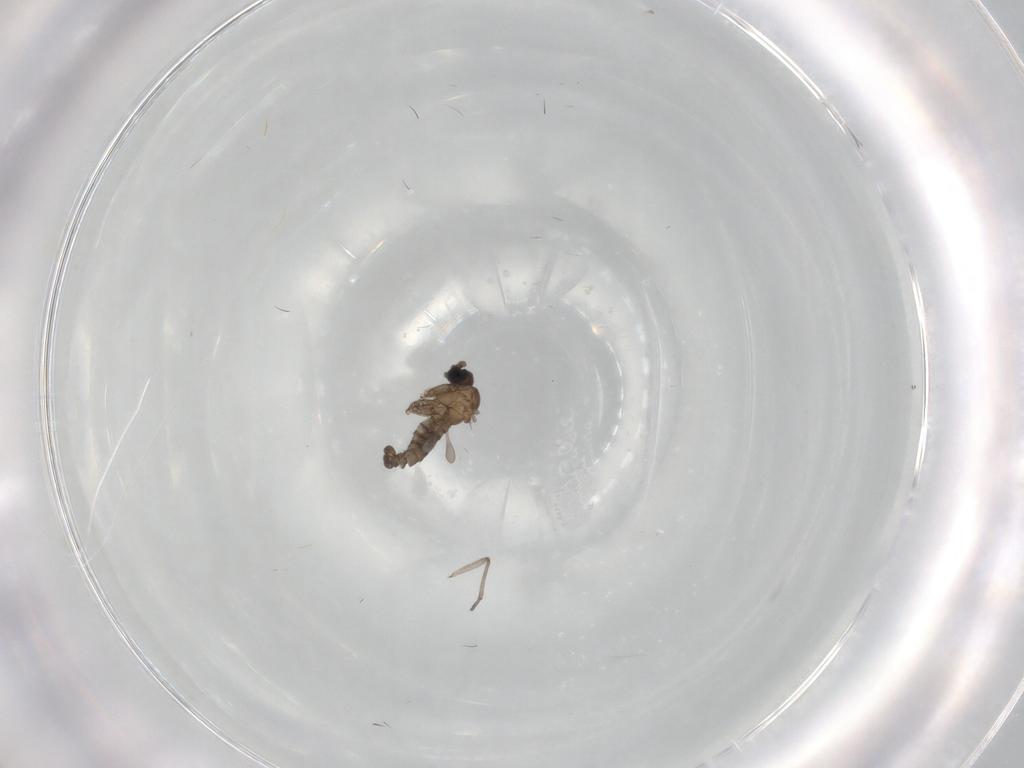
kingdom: Animalia
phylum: Arthropoda
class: Insecta
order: Diptera
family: Sciaridae
